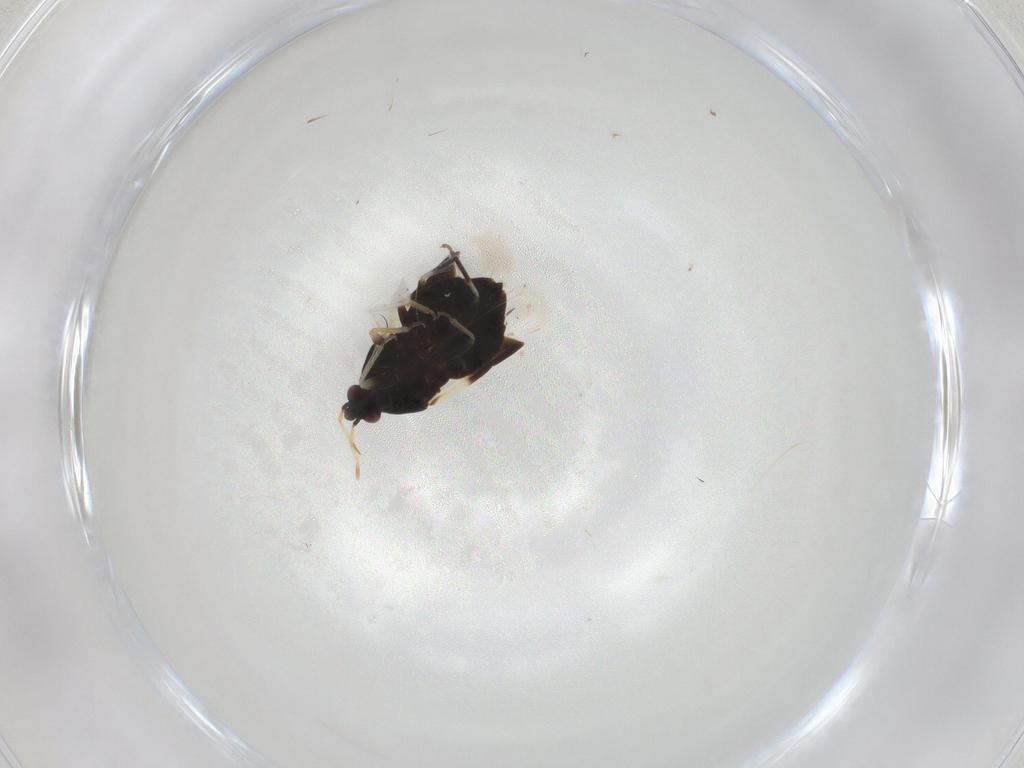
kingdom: Animalia
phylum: Arthropoda
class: Insecta
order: Hemiptera
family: Anthocoridae
